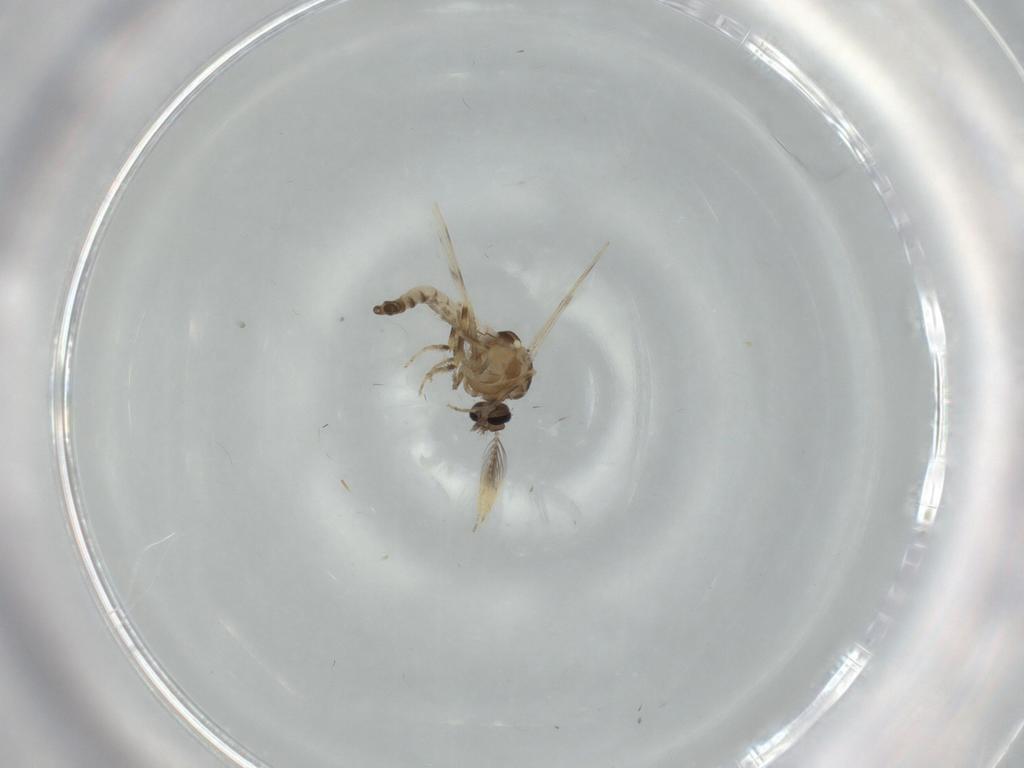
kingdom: Animalia
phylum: Arthropoda
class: Insecta
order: Diptera
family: Ceratopogonidae
